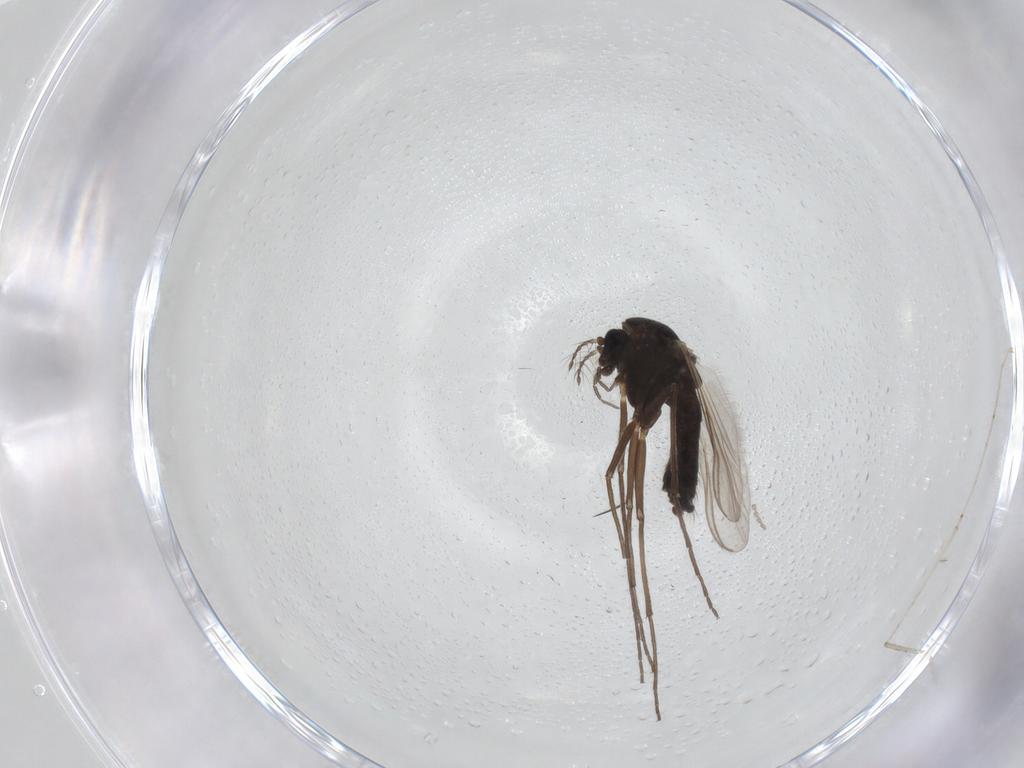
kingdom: Animalia
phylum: Arthropoda
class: Insecta
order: Diptera
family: Chironomidae
